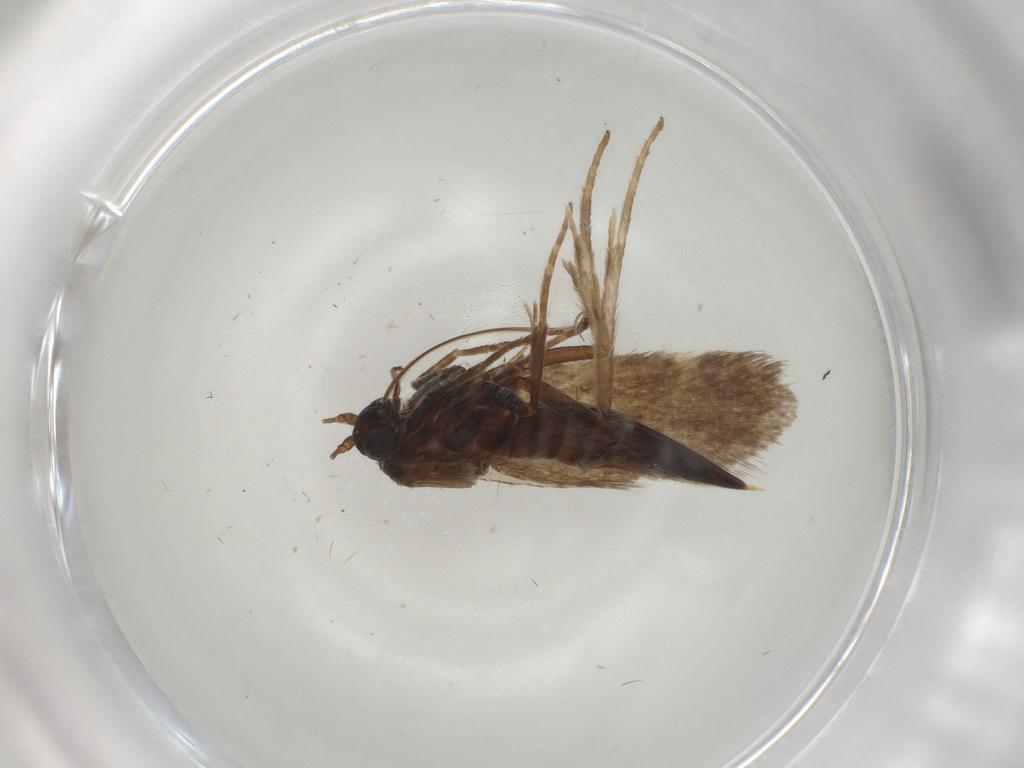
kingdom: Animalia
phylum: Arthropoda
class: Insecta
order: Lepidoptera
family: Adelidae
